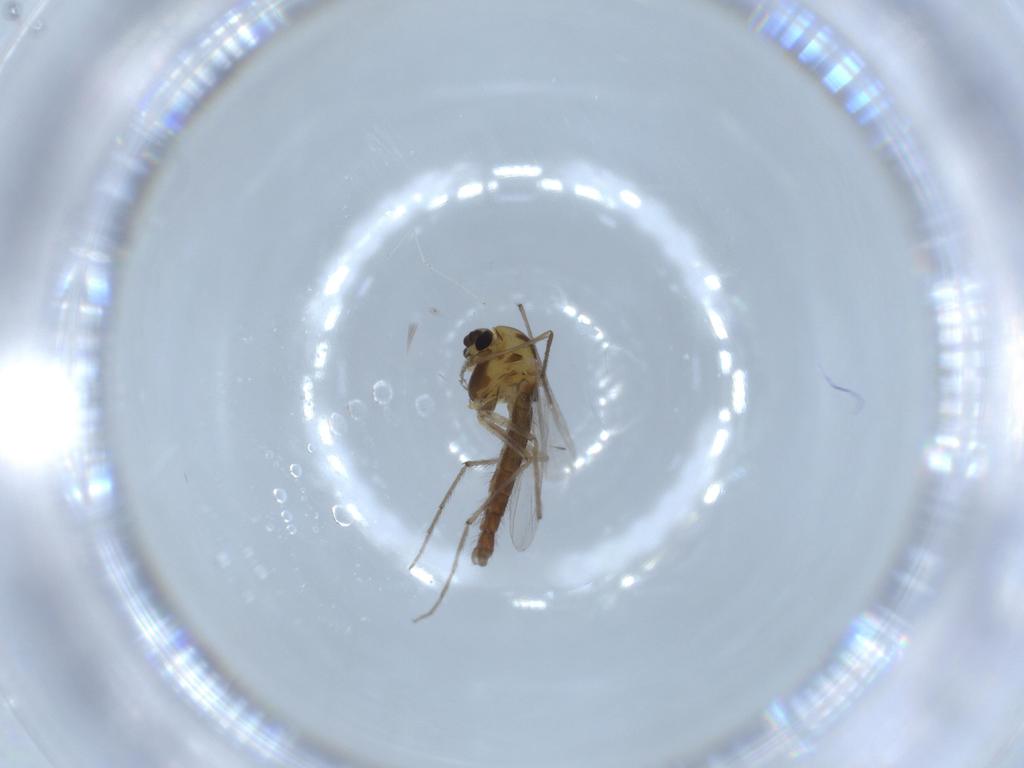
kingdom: Animalia
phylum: Arthropoda
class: Insecta
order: Diptera
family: Chironomidae
